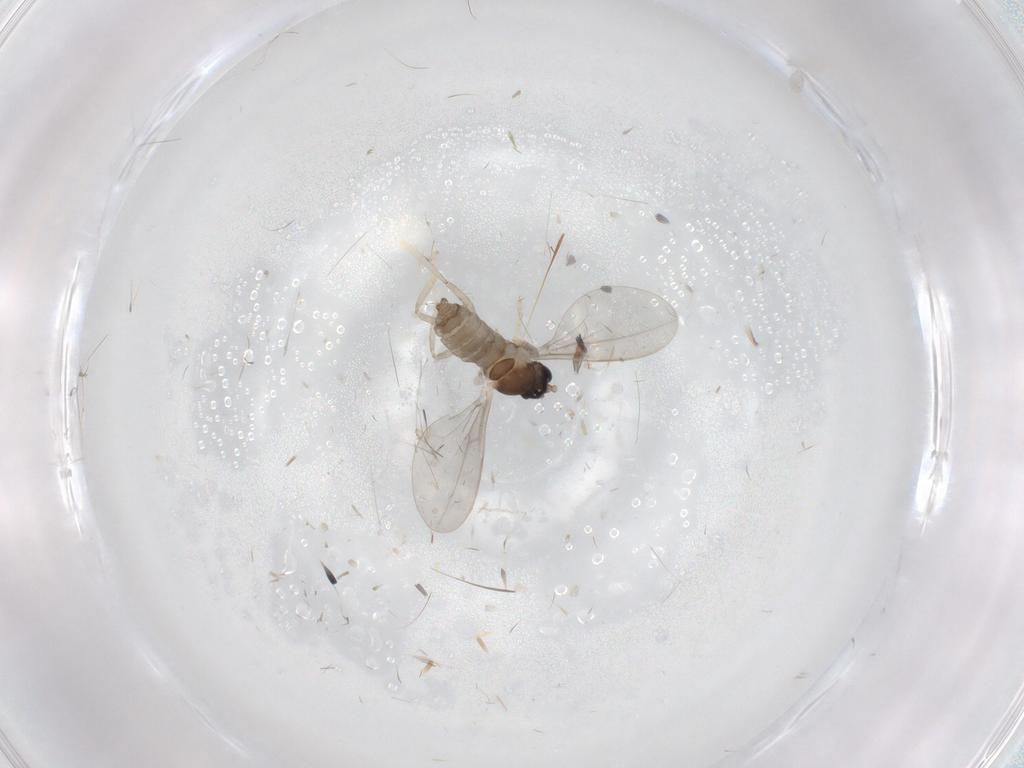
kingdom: Animalia
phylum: Arthropoda
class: Insecta
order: Diptera
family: Cecidomyiidae
